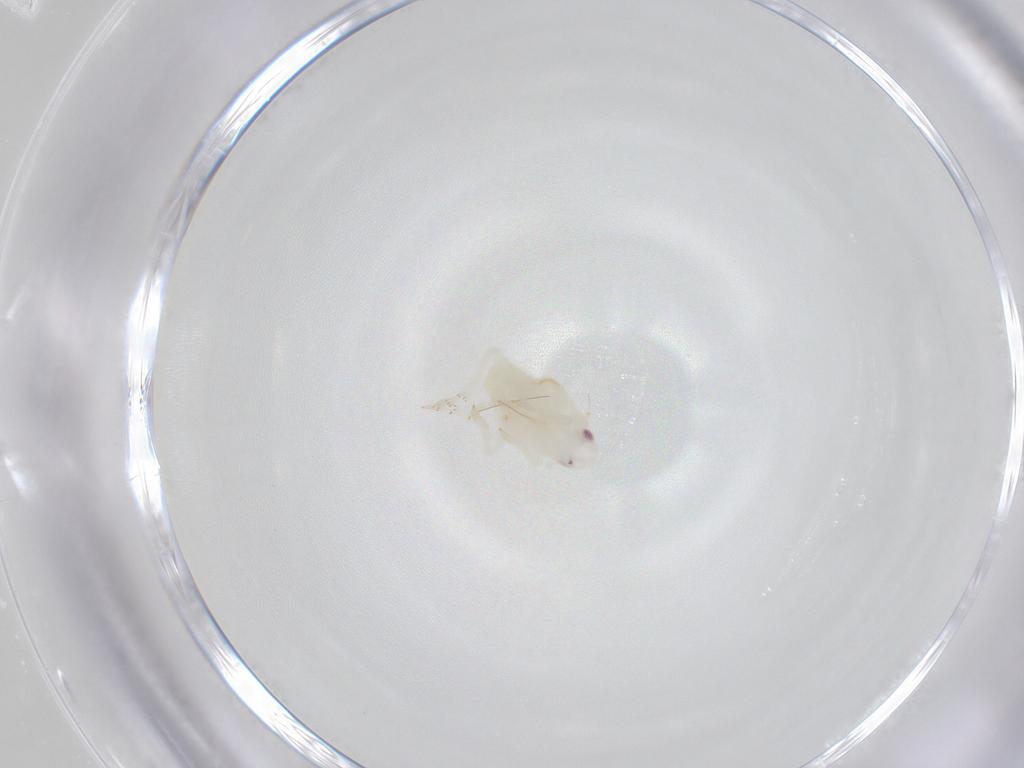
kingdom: Animalia
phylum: Arthropoda
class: Insecta
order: Hemiptera
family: Flatidae
